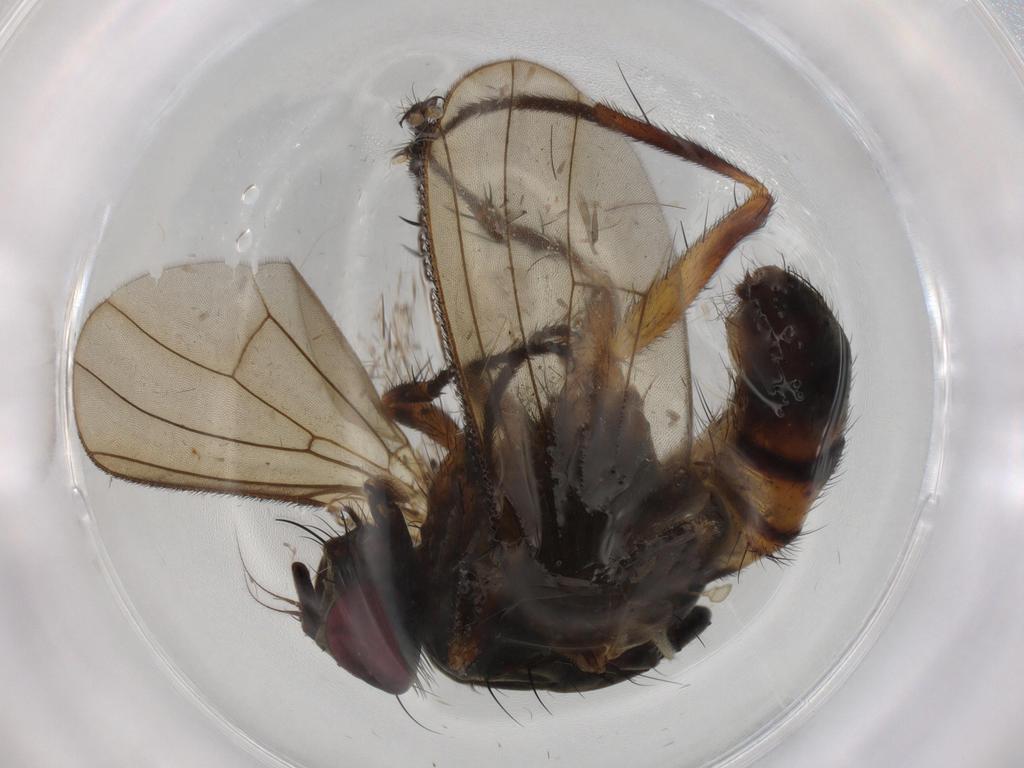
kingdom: Animalia
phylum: Arthropoda
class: Insecta
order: Diptera
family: Muscidae
